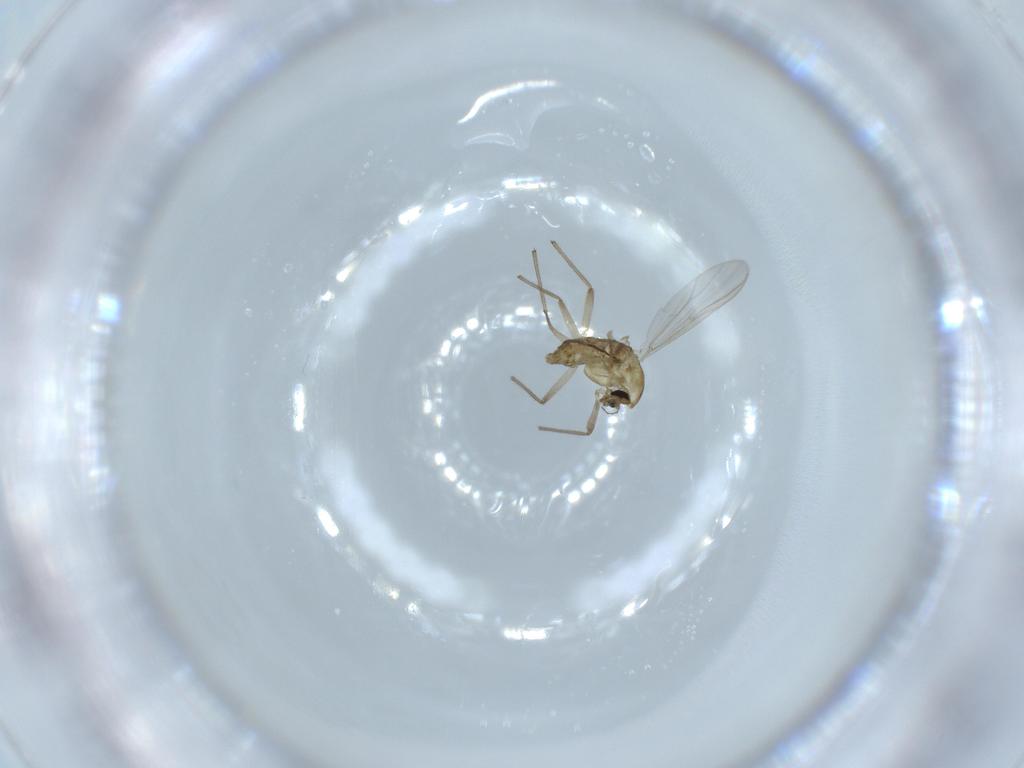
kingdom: Animalia
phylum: Arthropoda
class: Insecta
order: Diptera
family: Chironomidae
